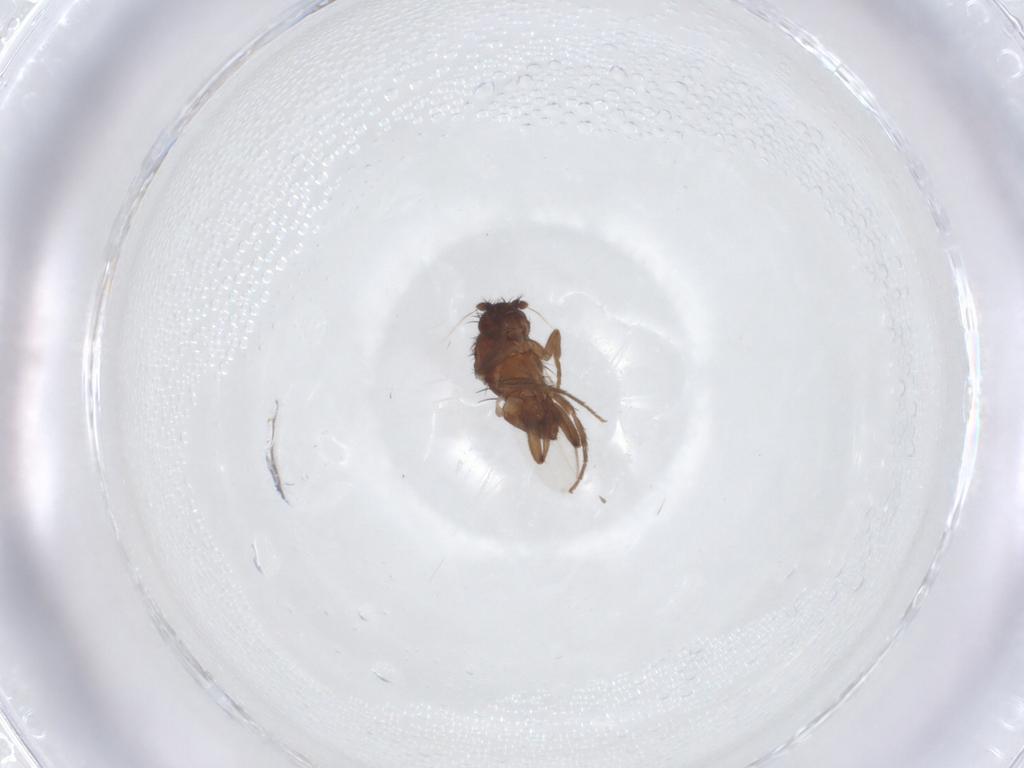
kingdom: Animalia
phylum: Arthropoda
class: Insecta
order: Diptera
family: Sphaeroceridae
